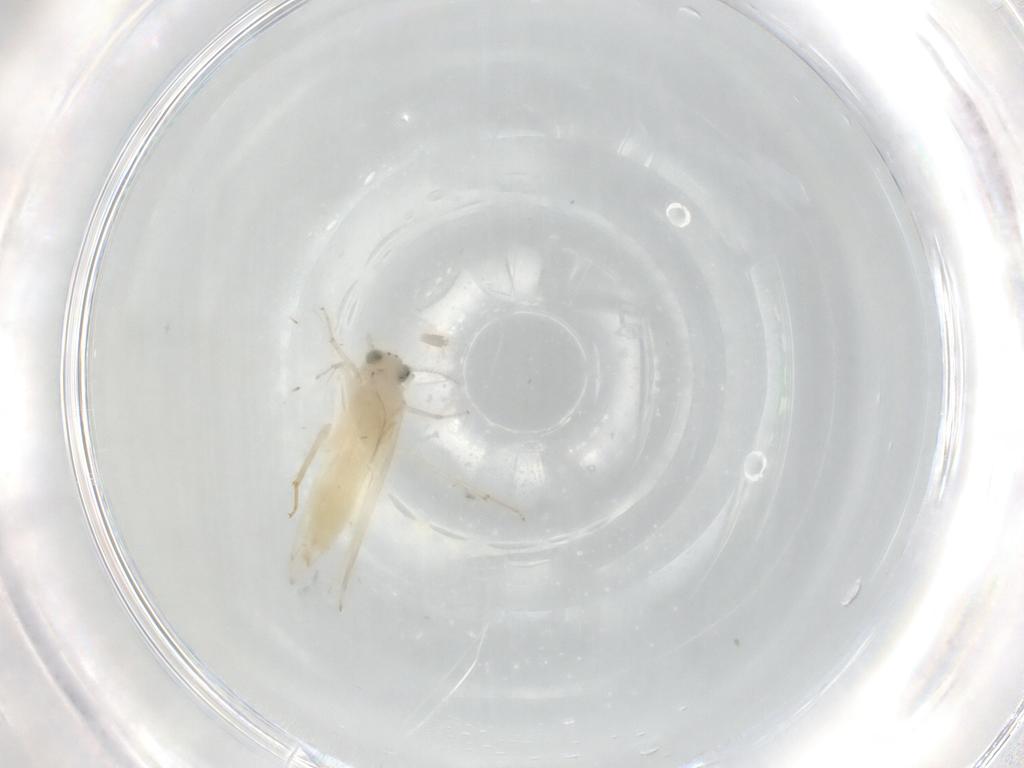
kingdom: Animalia
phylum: Arthropoda
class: Insecta
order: Psocodea
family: Lepidopsocidae
